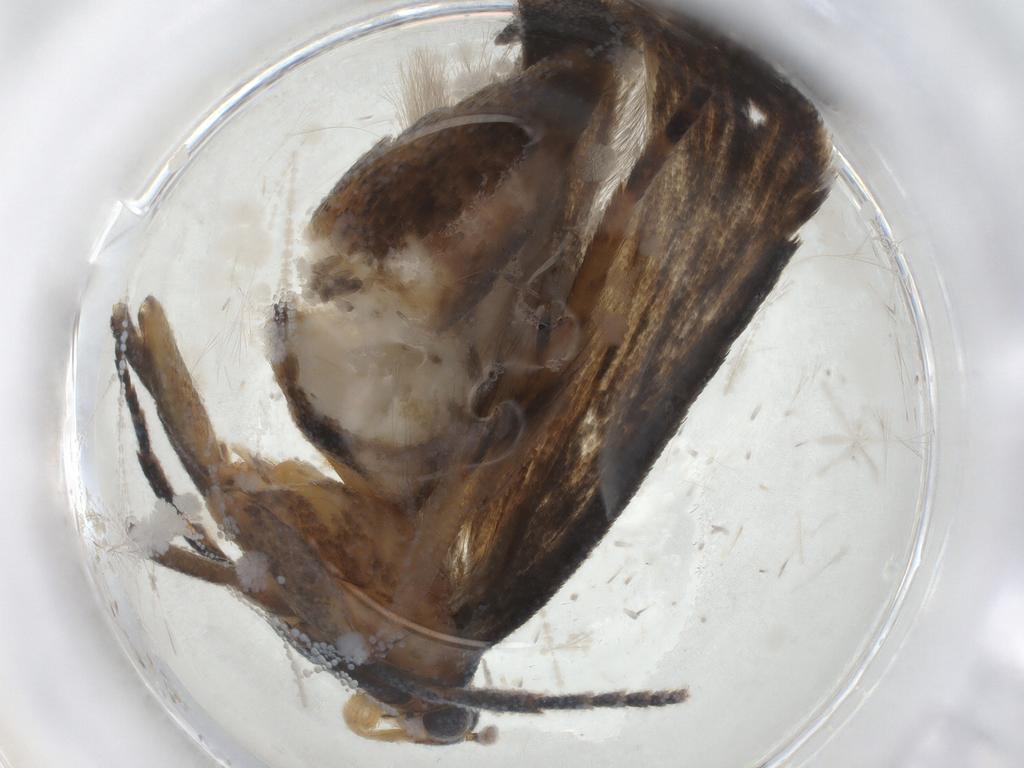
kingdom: Animalia
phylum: Arthropoda
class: Insecta
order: Lepidoptera
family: Gelechiidae
